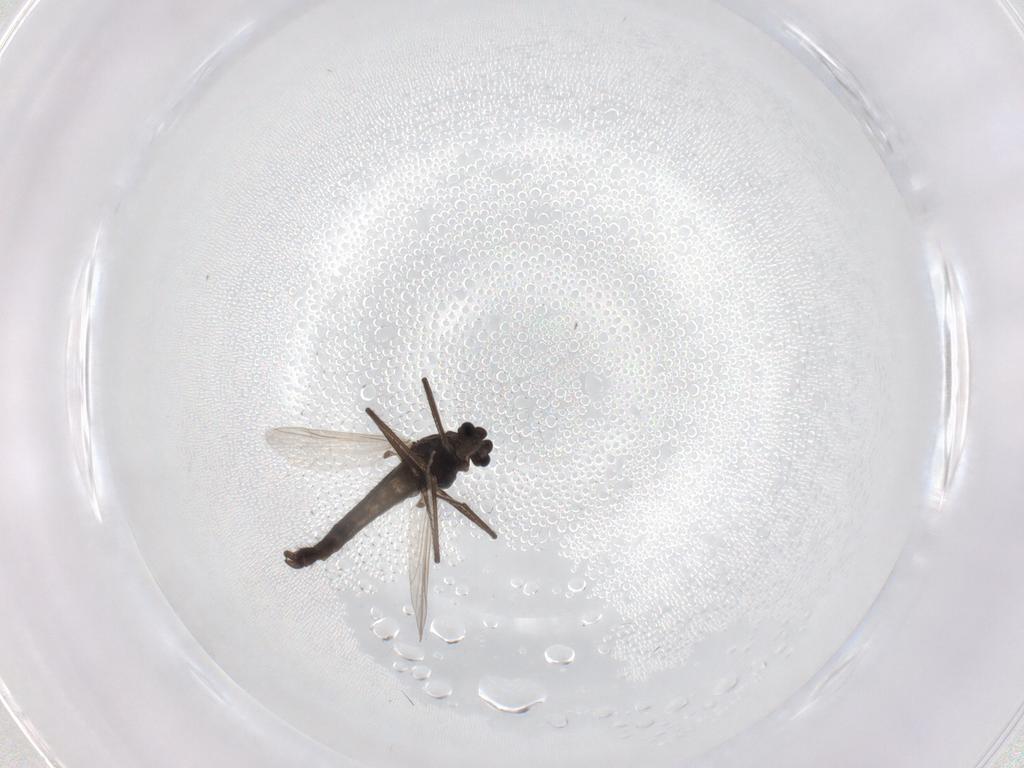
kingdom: Animalia
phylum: Arthropoda
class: Insecta
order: Diptera
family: Chironomidae
